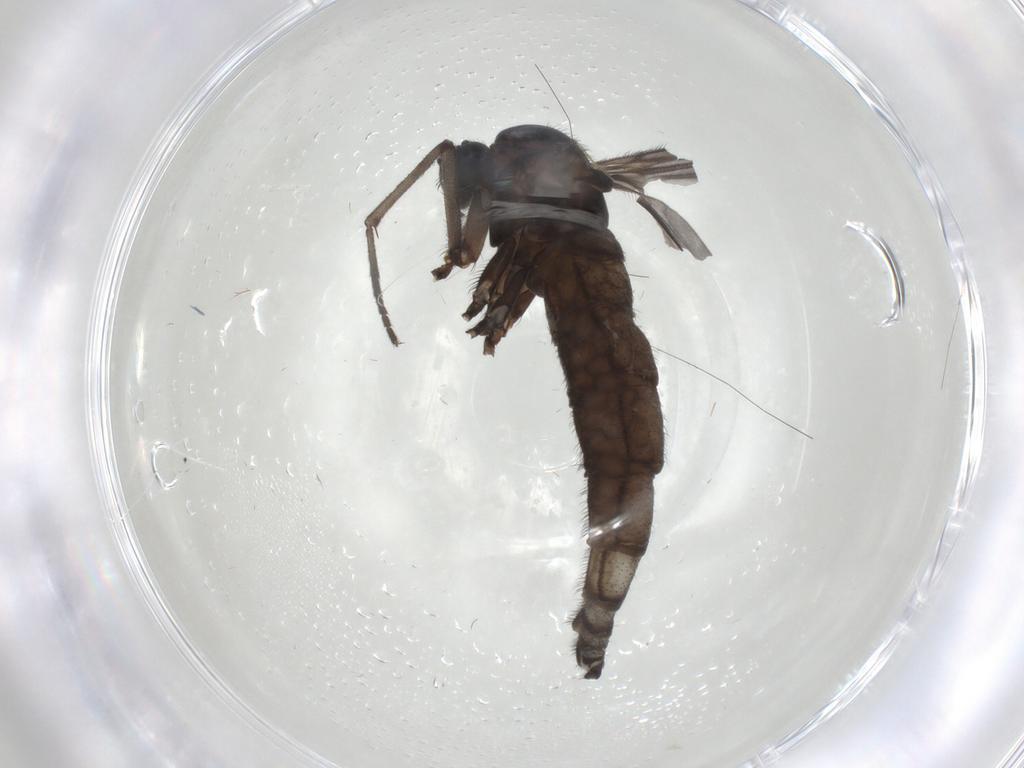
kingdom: Animalia
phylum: Arthropoda
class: Insecta
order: Diptera
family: Sciaridae
